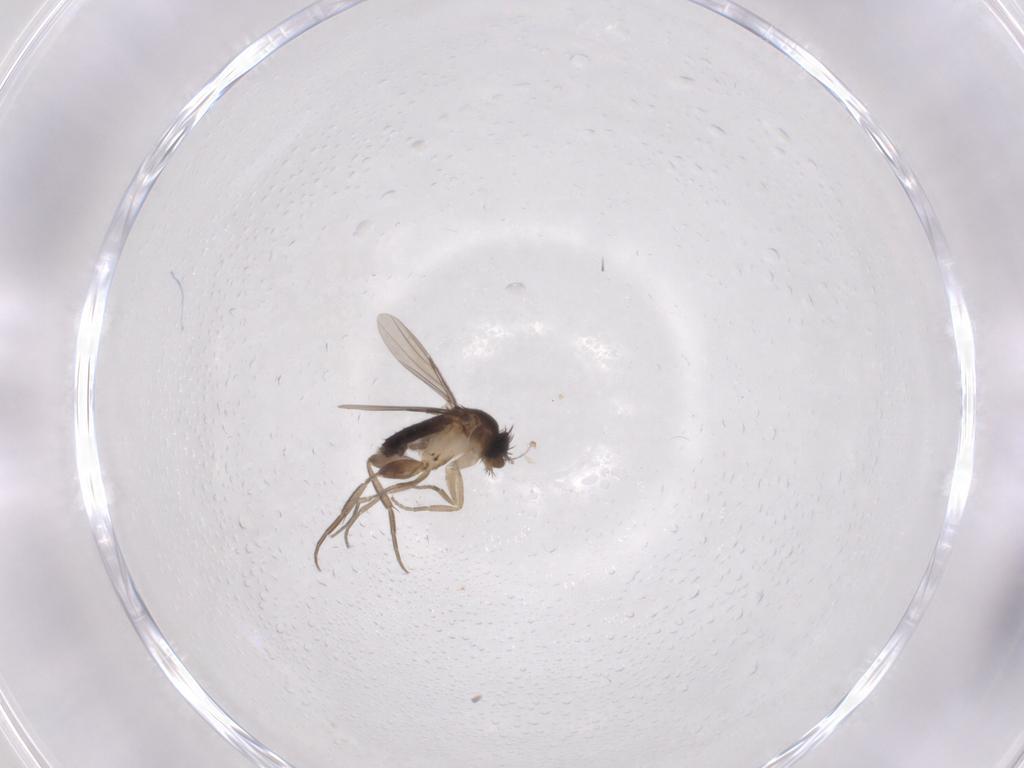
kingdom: Animalia
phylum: Arthropoda
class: Insecta
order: Diptera
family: Phoridae
